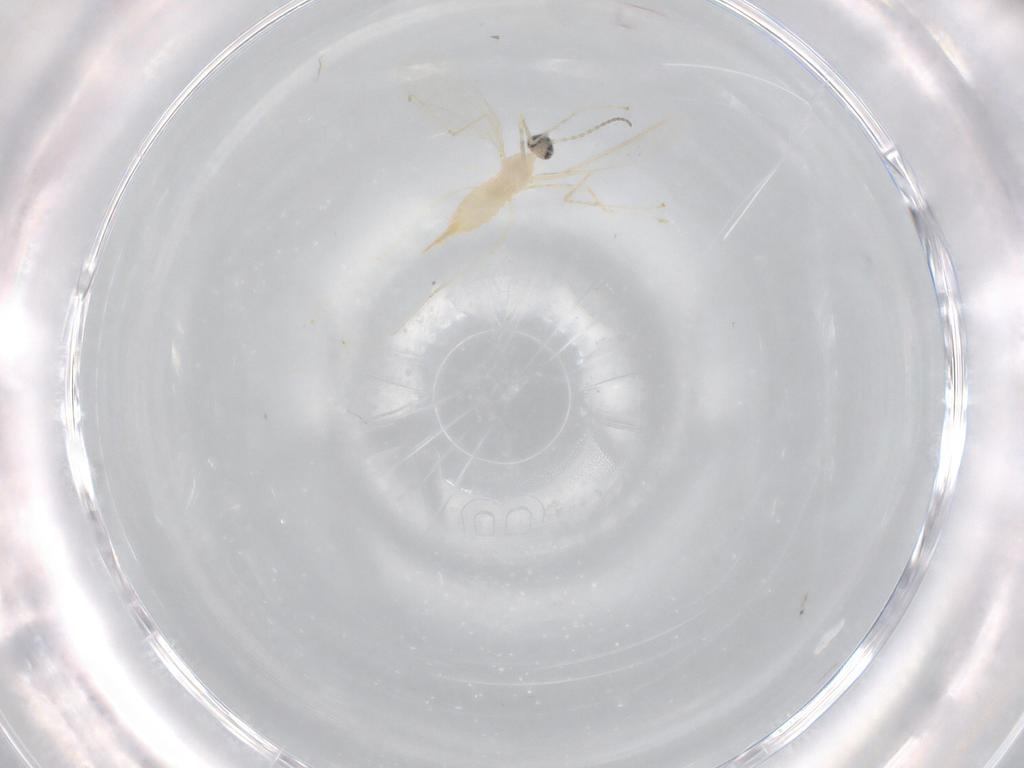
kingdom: Animalia
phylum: Arthropoda
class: Insecta
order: Diptera
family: Cecidomyiidae
